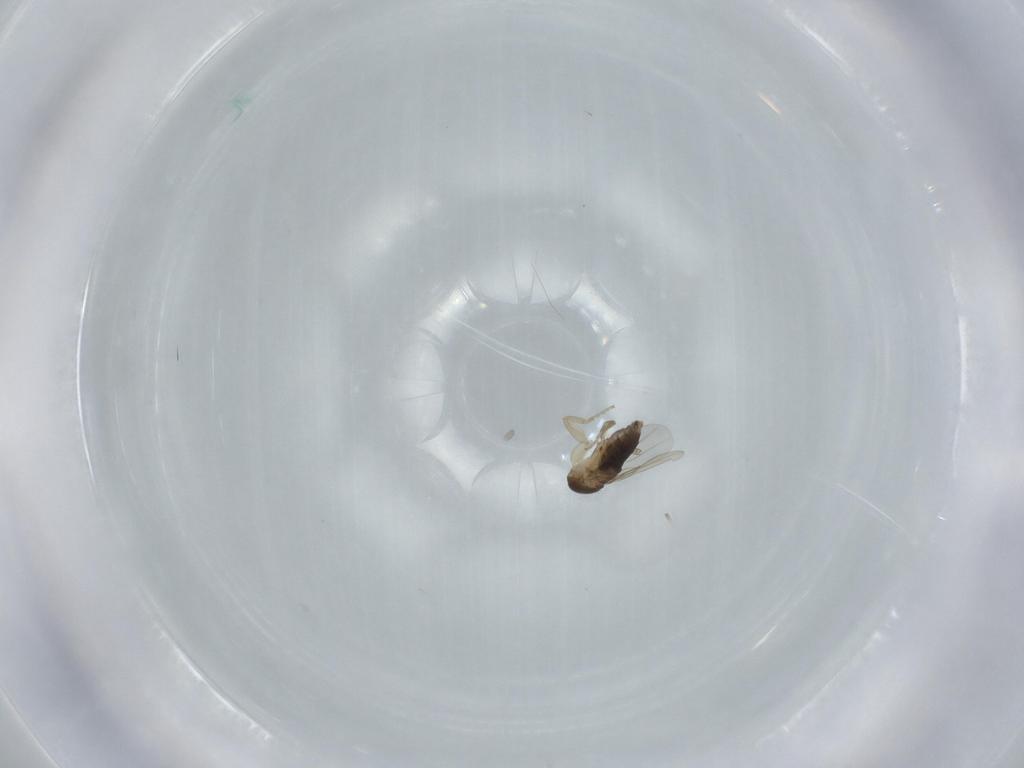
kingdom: Animalia
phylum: Arthropoda
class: Insecta
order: Diptera
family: Phoridae
